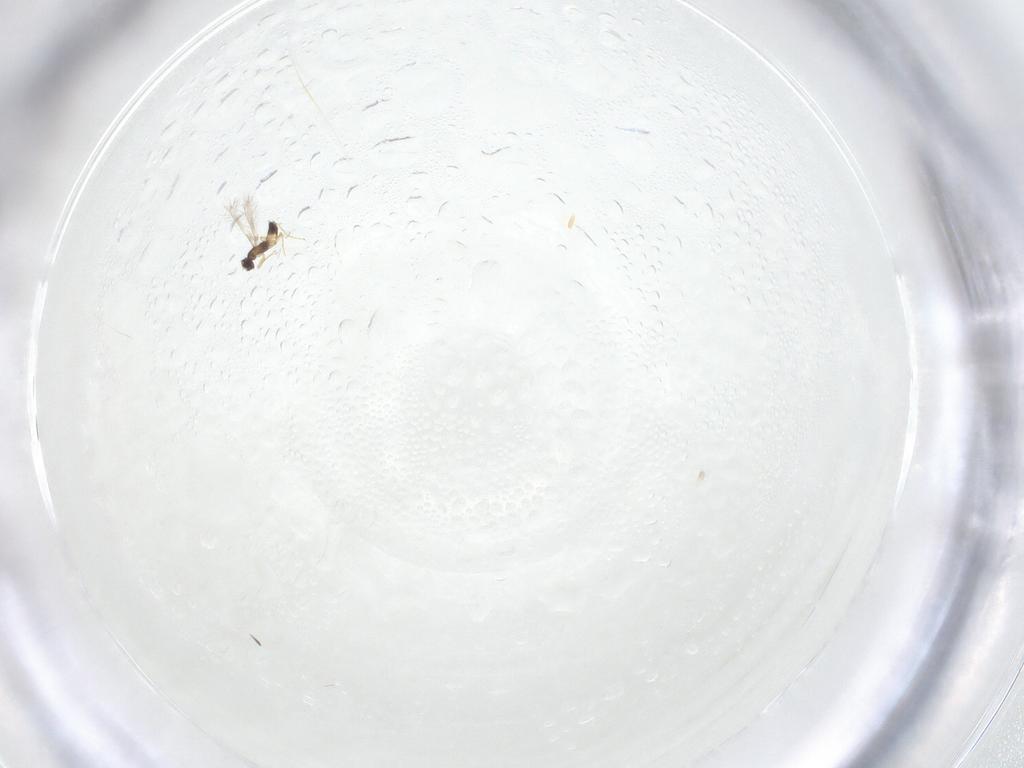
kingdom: Animalia
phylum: Arthropoda
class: Insecta
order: Hymenoptera
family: Mymaridae
